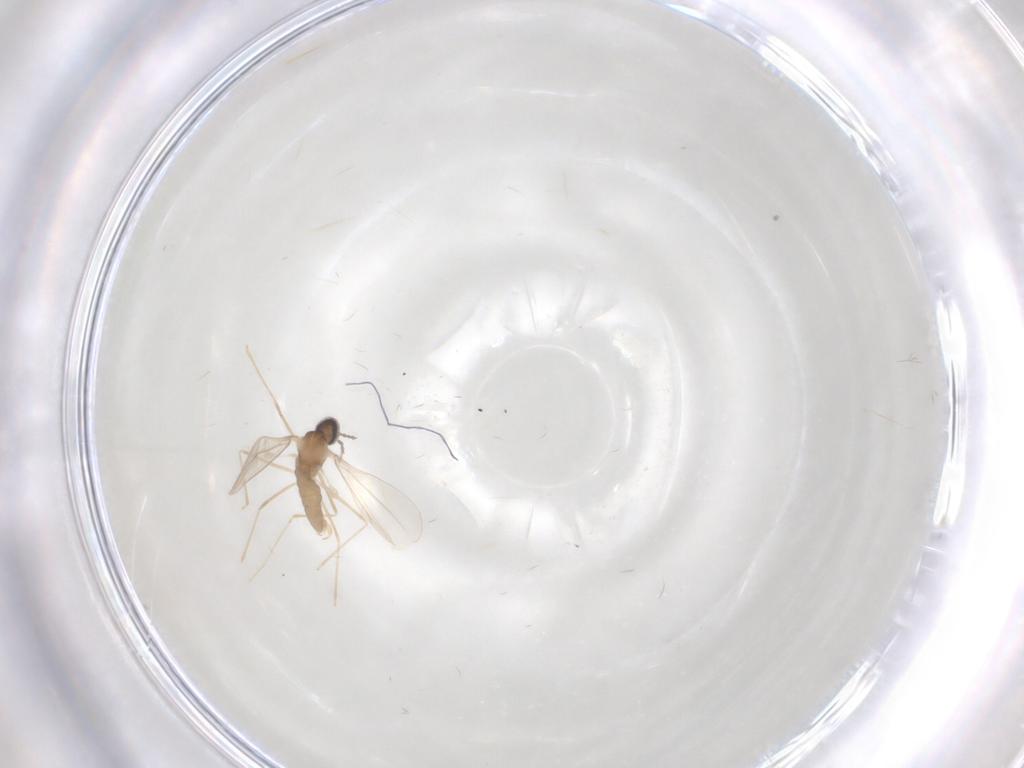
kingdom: Animalia
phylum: Arthropoda
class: Insecta
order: Diptera
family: Cecidomyiidae
